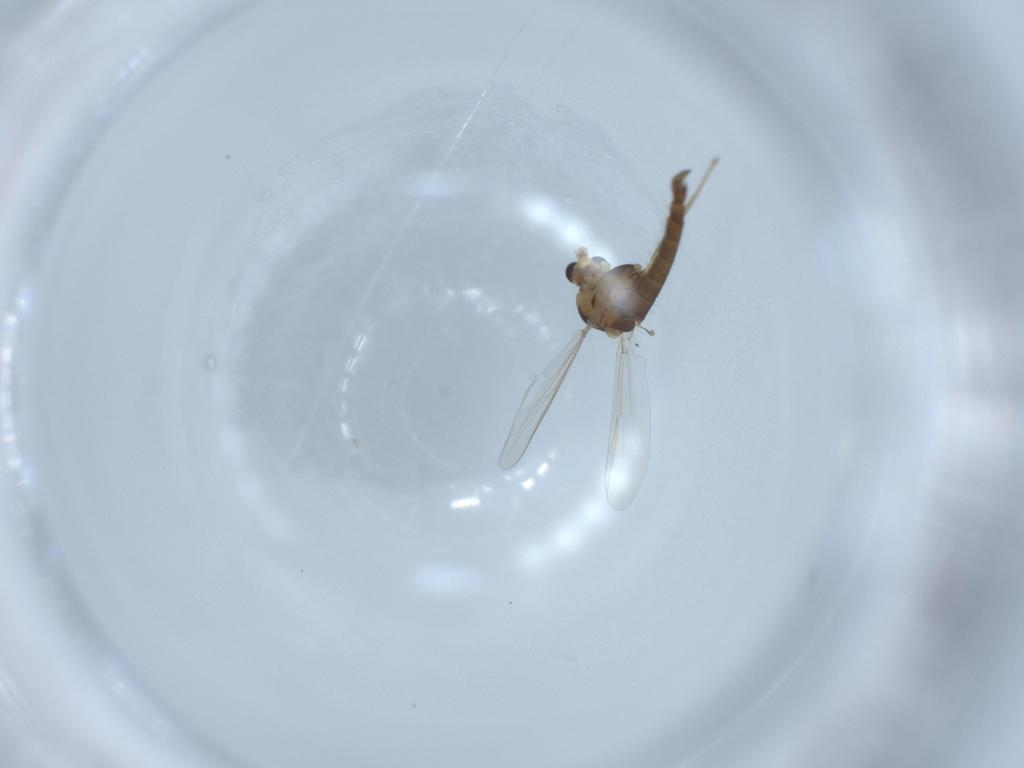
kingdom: Animalia
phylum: Arthropoda
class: Insecta
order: Diptera
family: Chironomidae
